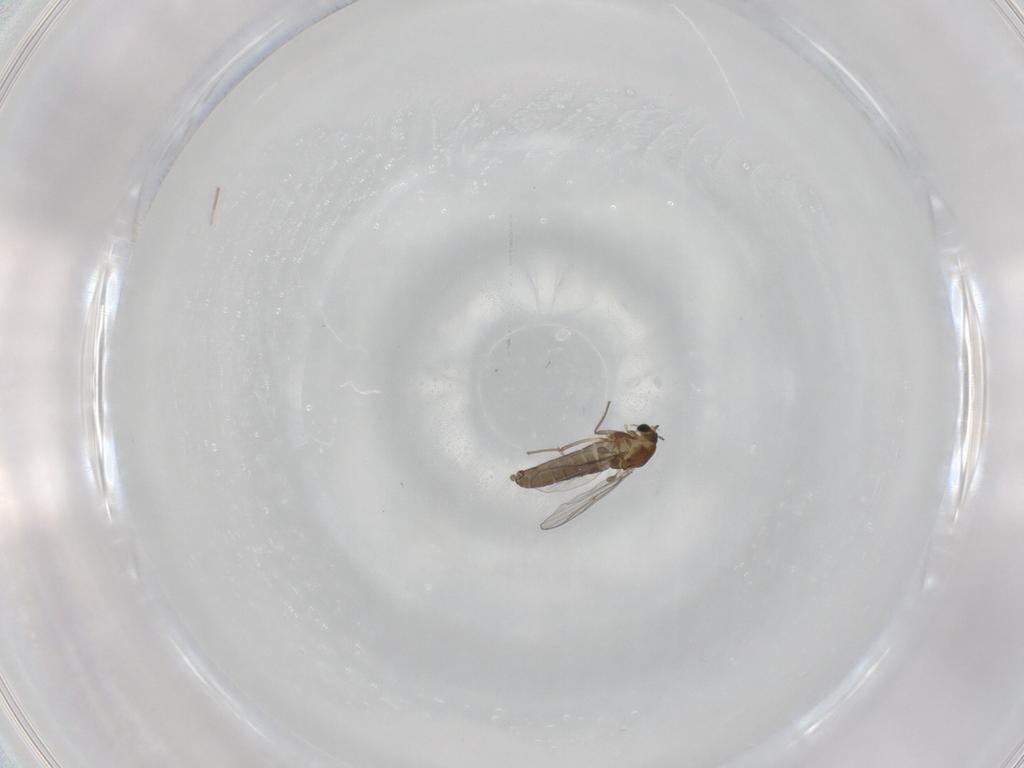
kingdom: Animalia
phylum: Arthropoda
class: Insecta
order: Diptera
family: Chironomidae
